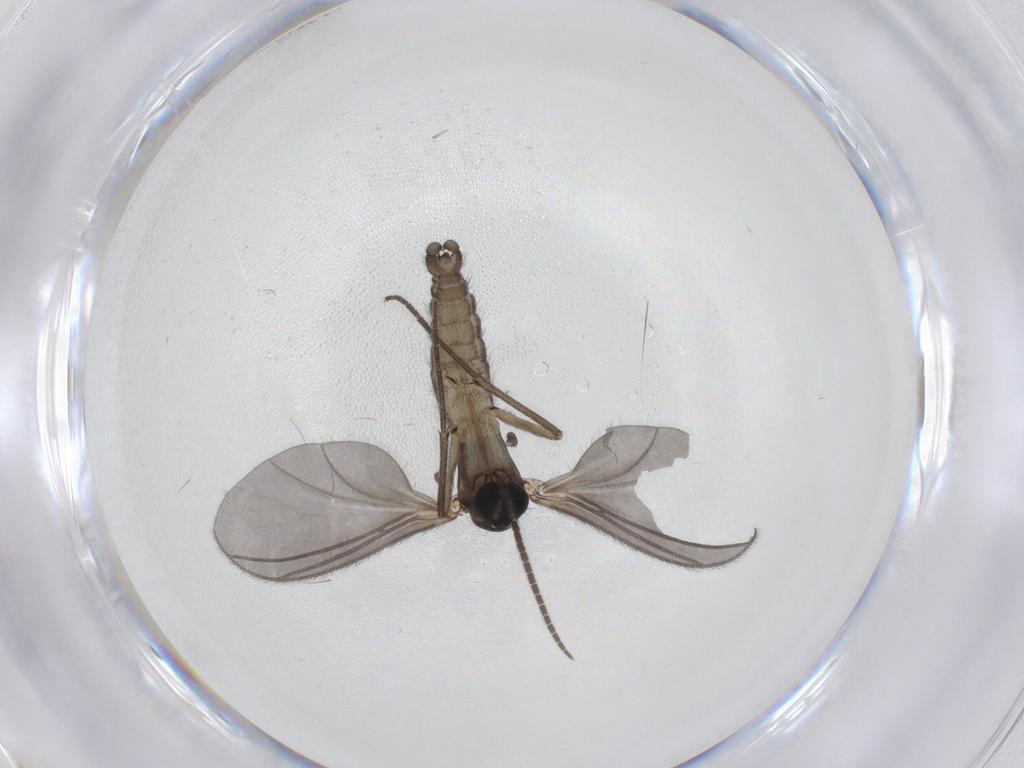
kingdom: Animalia
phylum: Arthropoda
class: Insecta
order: Diptera
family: Sciaridae
